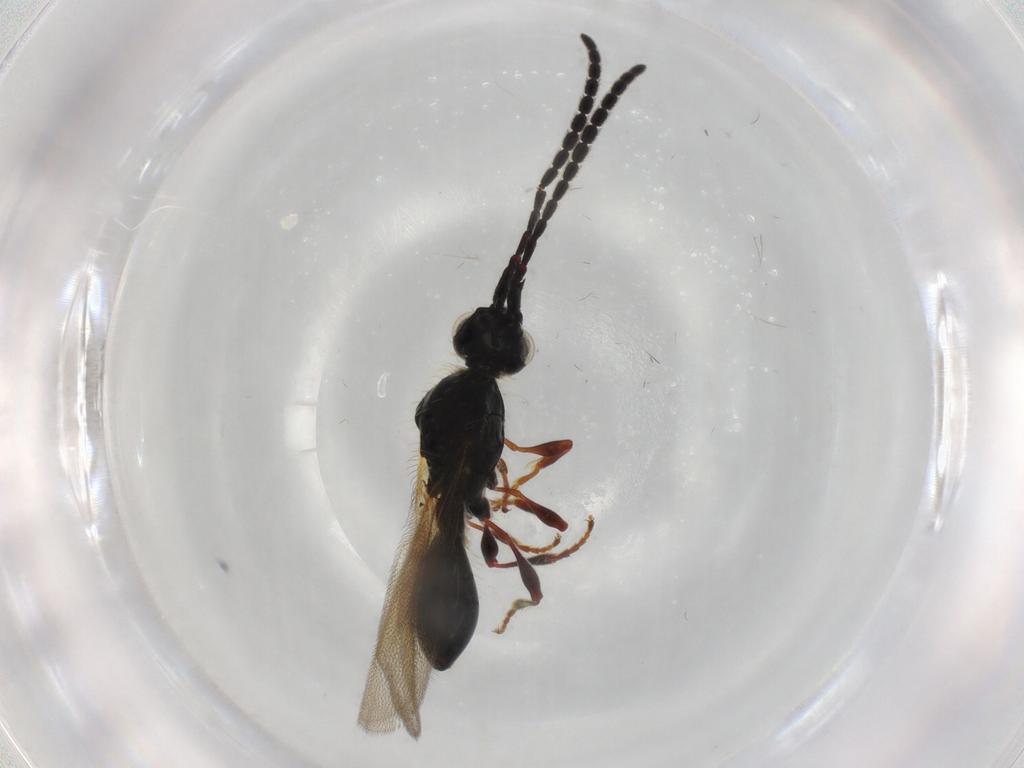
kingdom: Animalia
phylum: Arthropoda
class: Insecta
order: Hymenoptera
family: Diapriidae
